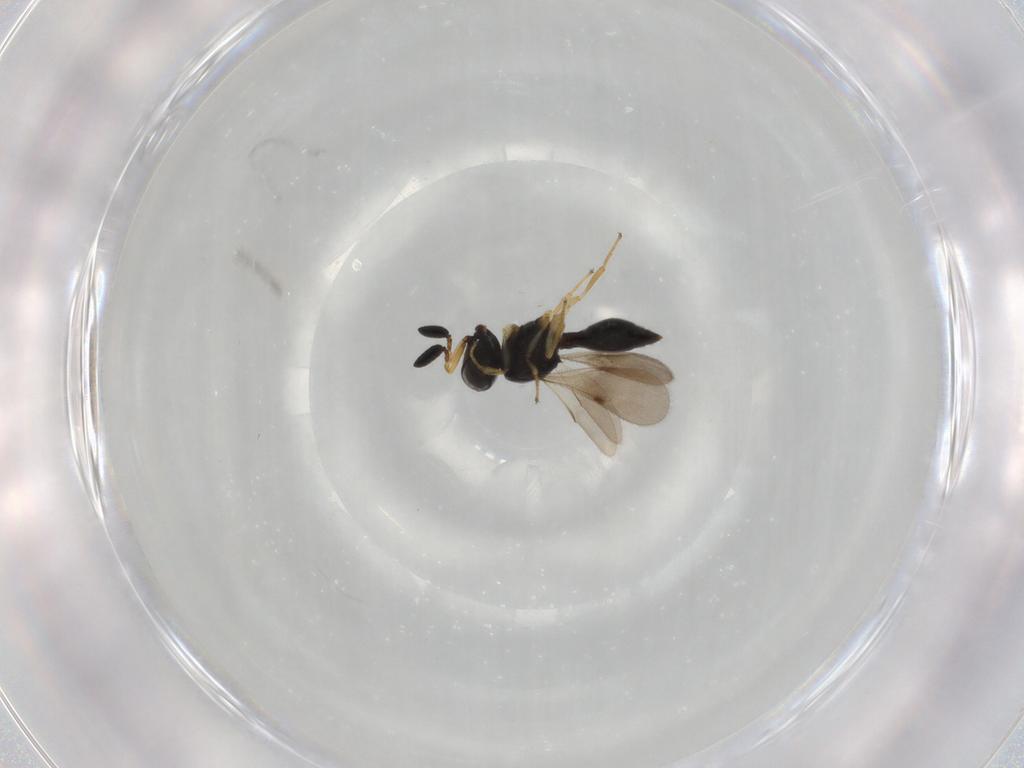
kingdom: Animalia
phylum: Arthropoda
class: Insecta
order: Hymenoptera
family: Scelionidae
